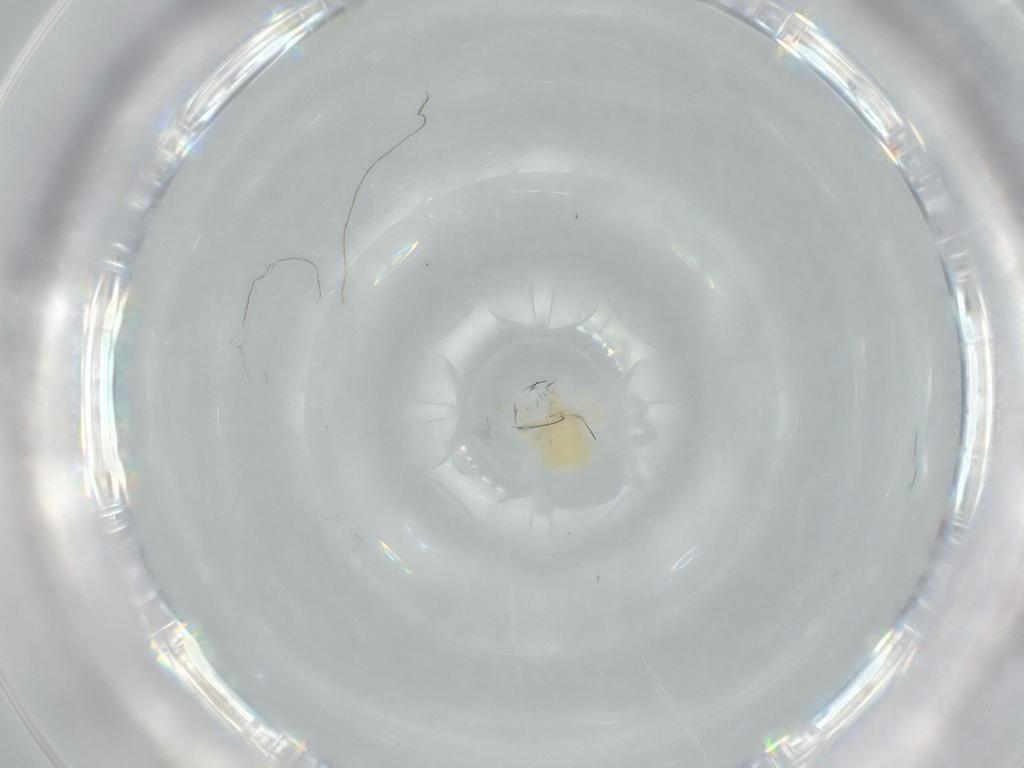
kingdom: Animalia
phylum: Arthropoda
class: Arachnida
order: Trombidiformes
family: Anystidae
